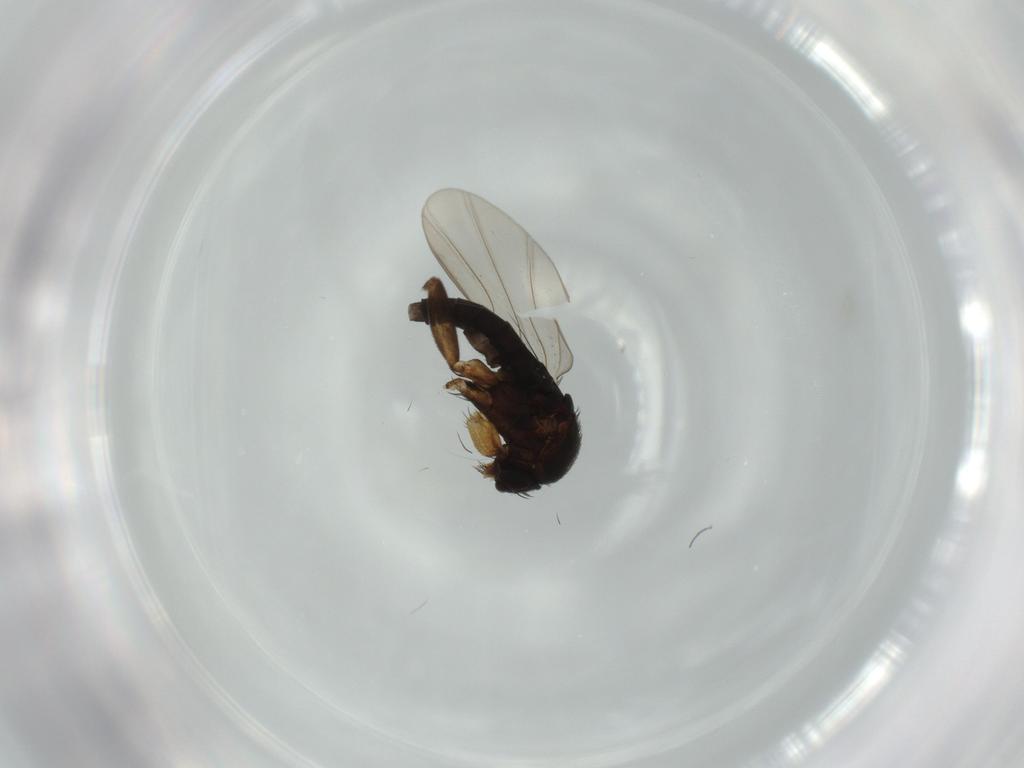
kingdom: Animalia
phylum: Arthropoda
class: Insecta
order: Diptera
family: Phoridae
